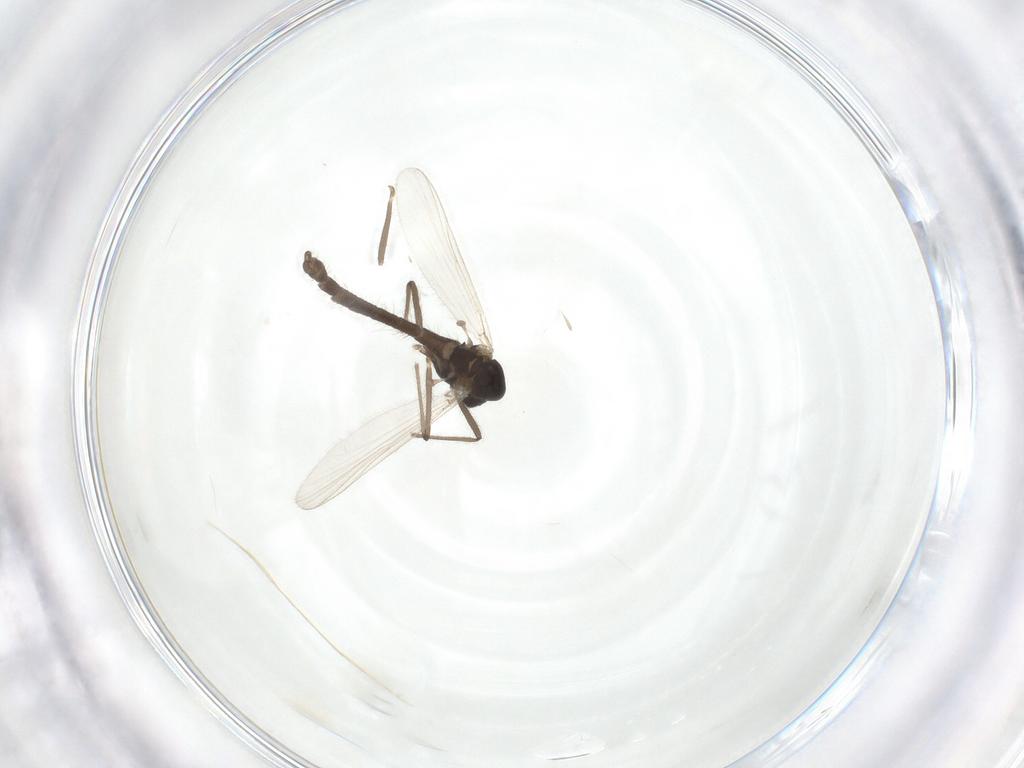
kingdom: Animalia
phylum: Arthropoda
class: Insecta
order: Diptera
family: Chironomidae
